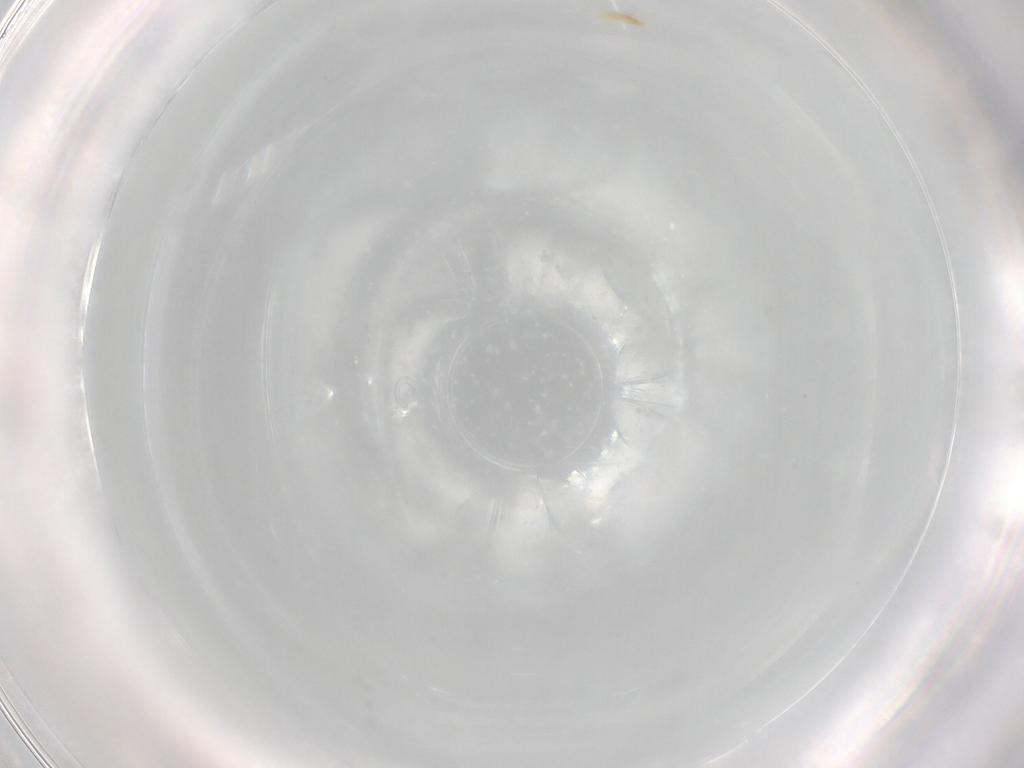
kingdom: Animalia
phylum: Arthropoda
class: Arachnida
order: Trombidiformes
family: Eupodidae
